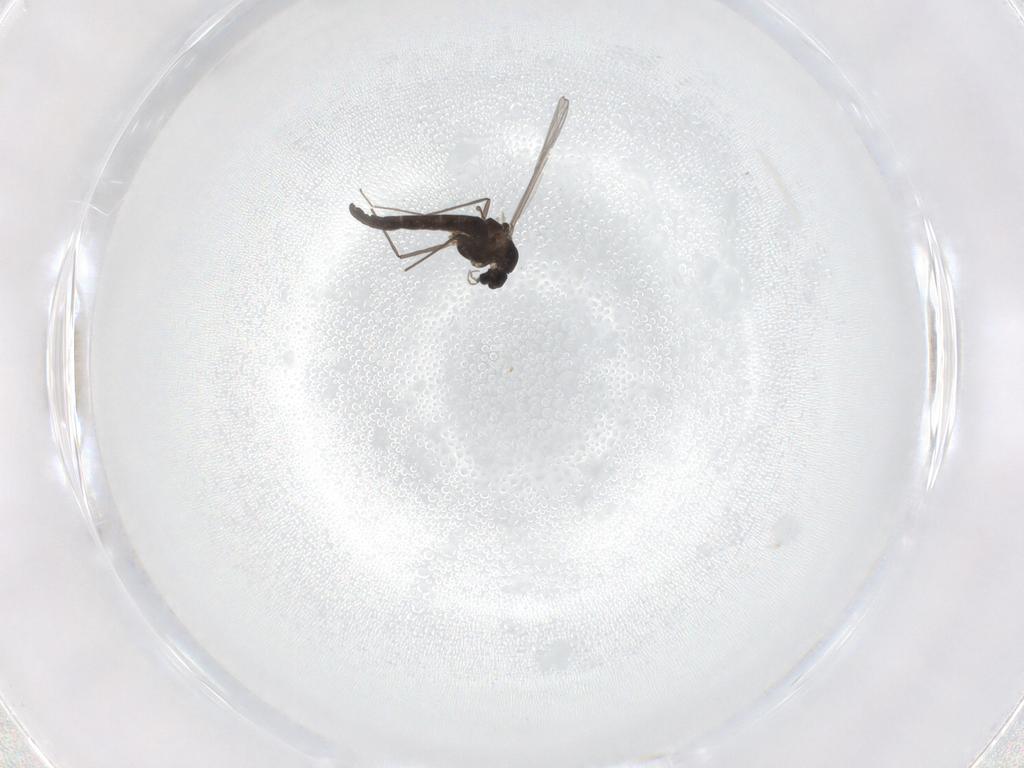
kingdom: Animalia
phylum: Arthropoda
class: Insecta
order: Diptera
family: Chironomidae
